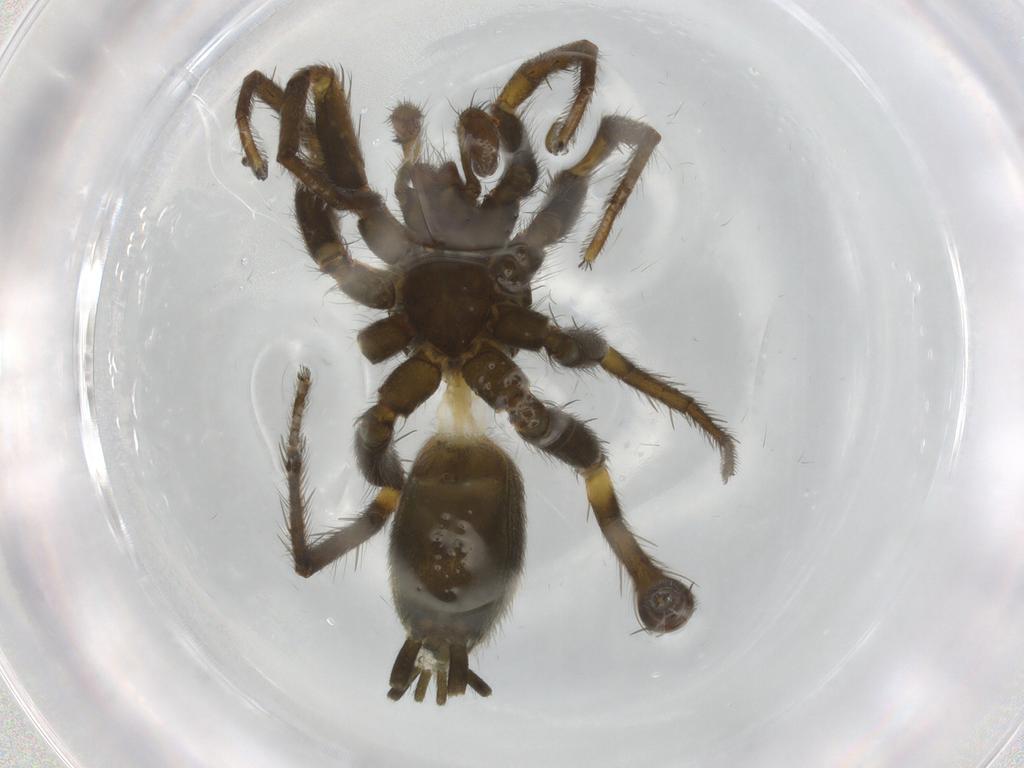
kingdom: Animalia
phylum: Arthropoda
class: Arachnida
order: Araneae
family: Gnaphosidae
